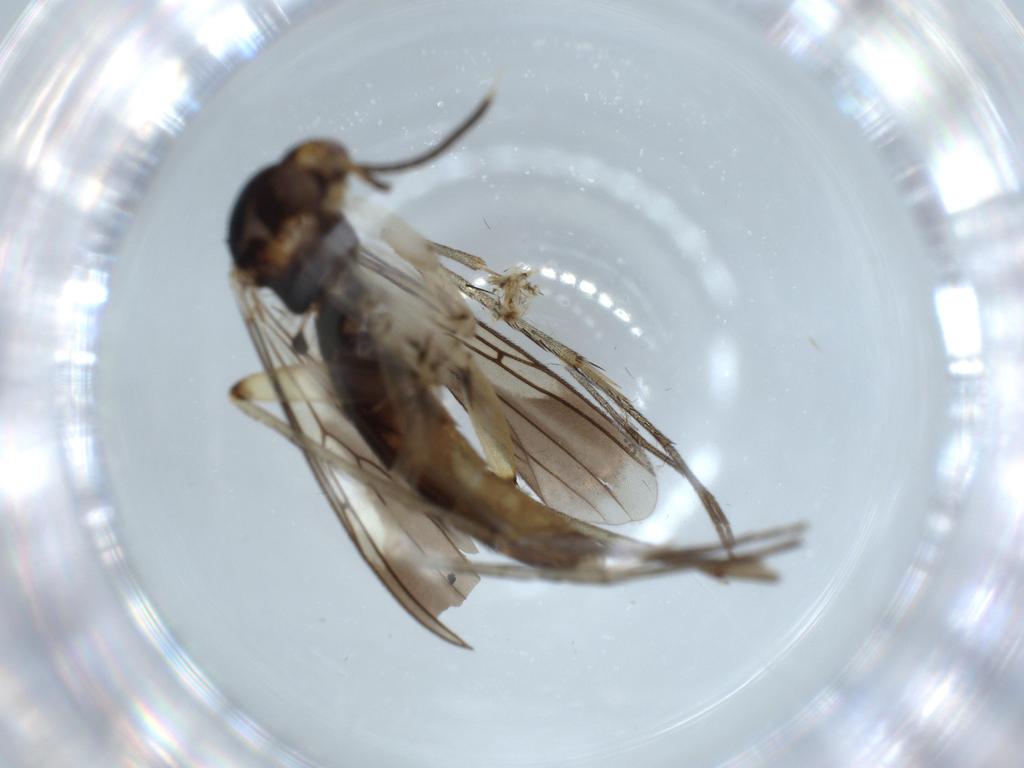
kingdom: Animalia
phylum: Arthropoda
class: Insecta
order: Diptera
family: Mycetophilidae
